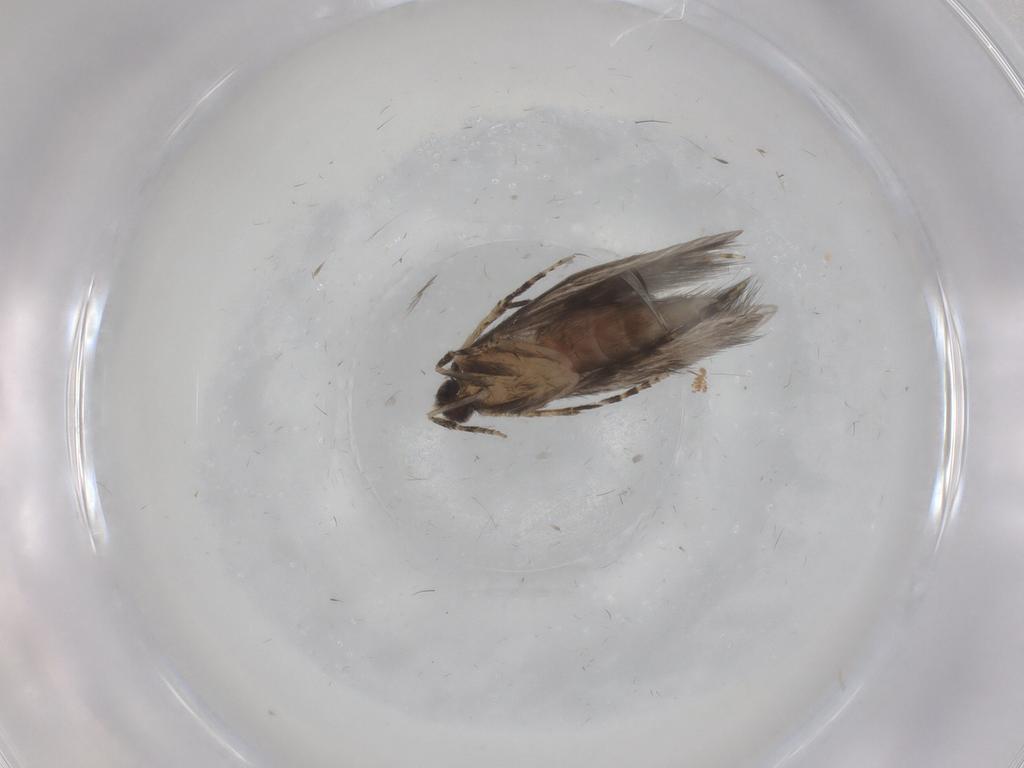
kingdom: Animalia
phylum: Arthropoda
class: Insecta
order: Trichoptera
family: Hydroptilidae
